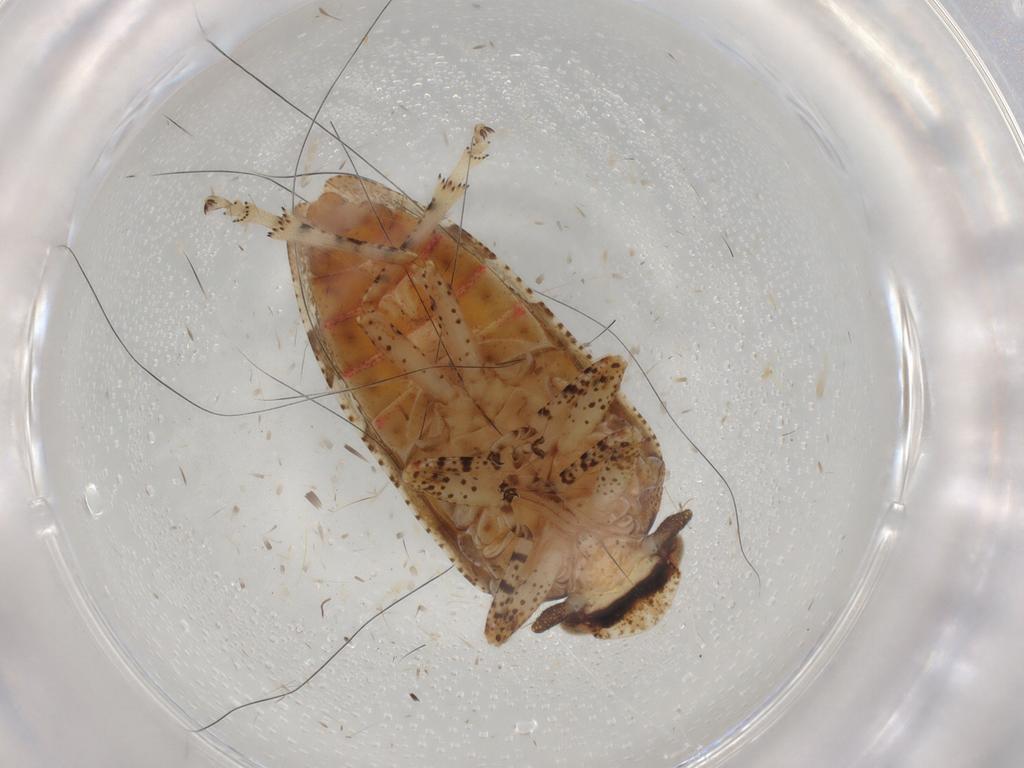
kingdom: Animalia
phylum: Arthropoda
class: Insecta
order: Hemiptera
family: Tettigometridae
